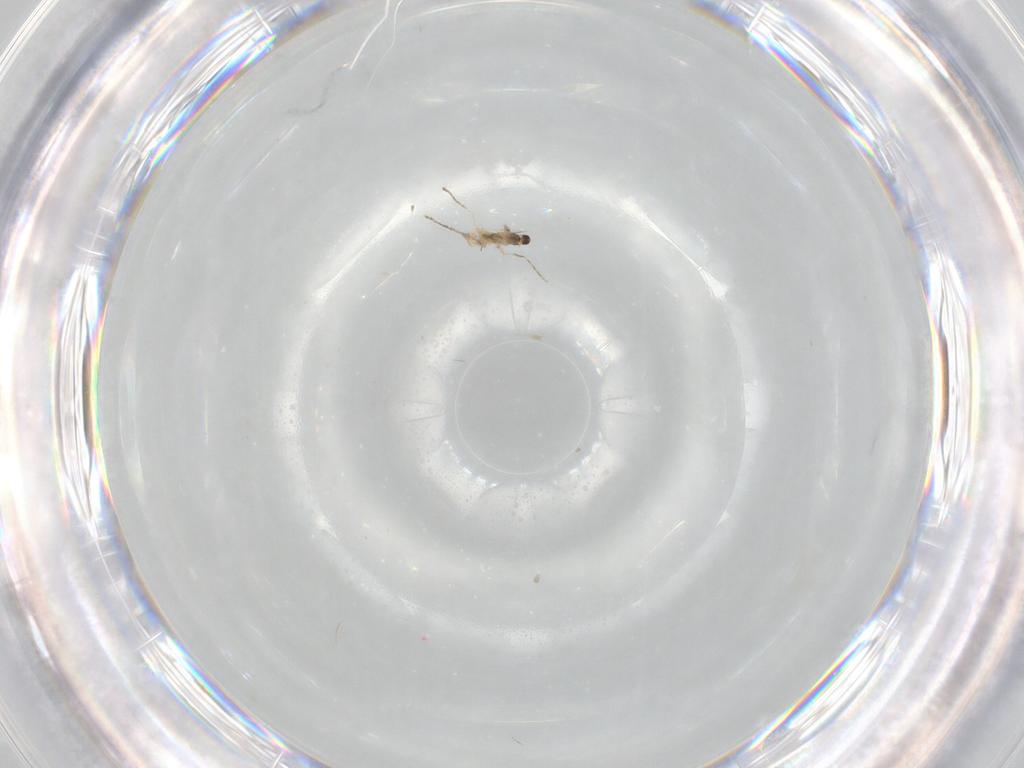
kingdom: Animalia
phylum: Arthropoda
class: Insecta
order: Diptera
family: Cecidomyiidae
